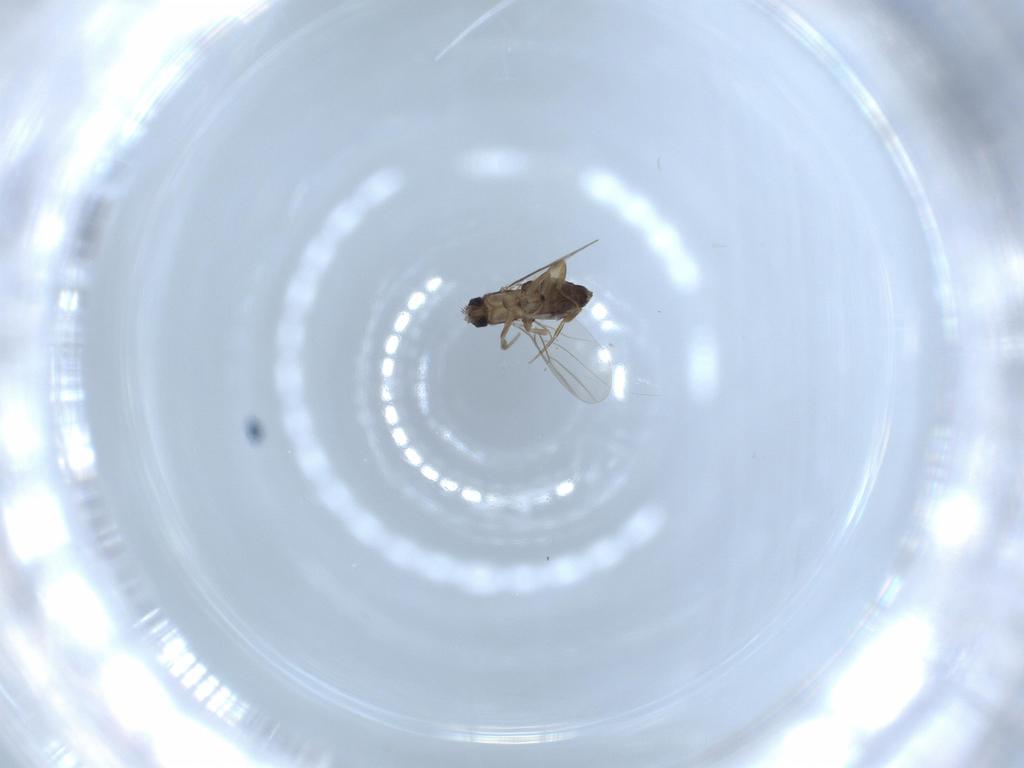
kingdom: Animalia
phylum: Arthropoda
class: Insecta
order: Diptera
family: Phoridae
